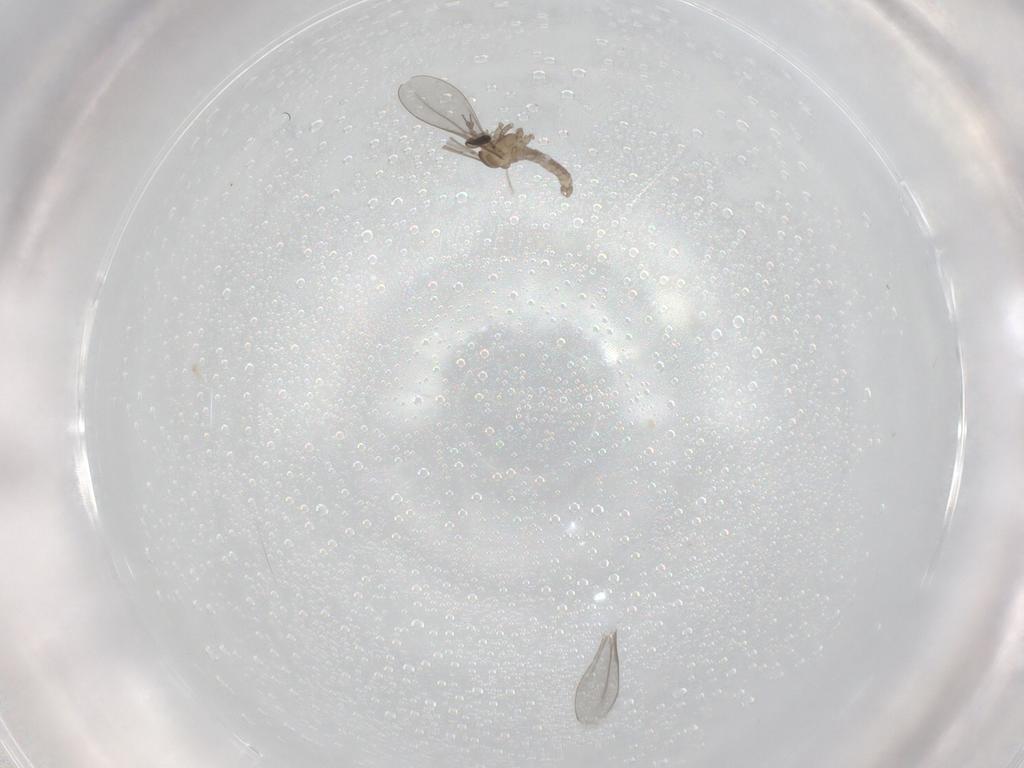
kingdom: Animalia
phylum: Arthropoda
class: Insecta
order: Diptera
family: Cecidomyiidae
